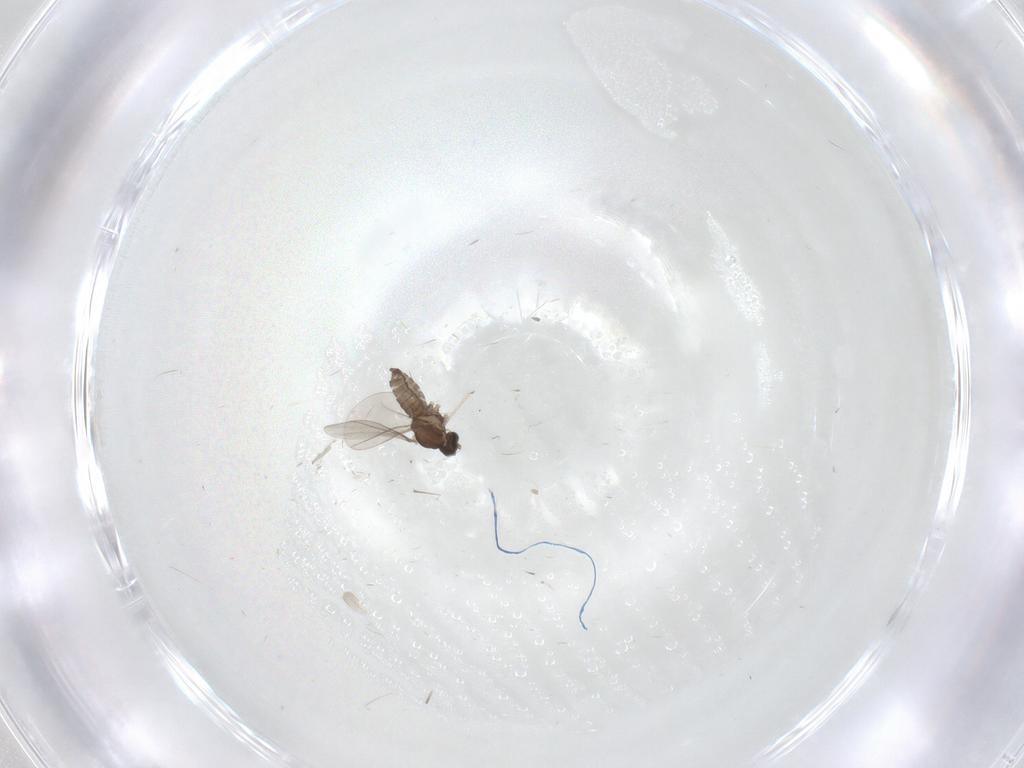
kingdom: Animalia
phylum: Arthropoda
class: Insecta
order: Diptera
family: Cecidomyiidae
